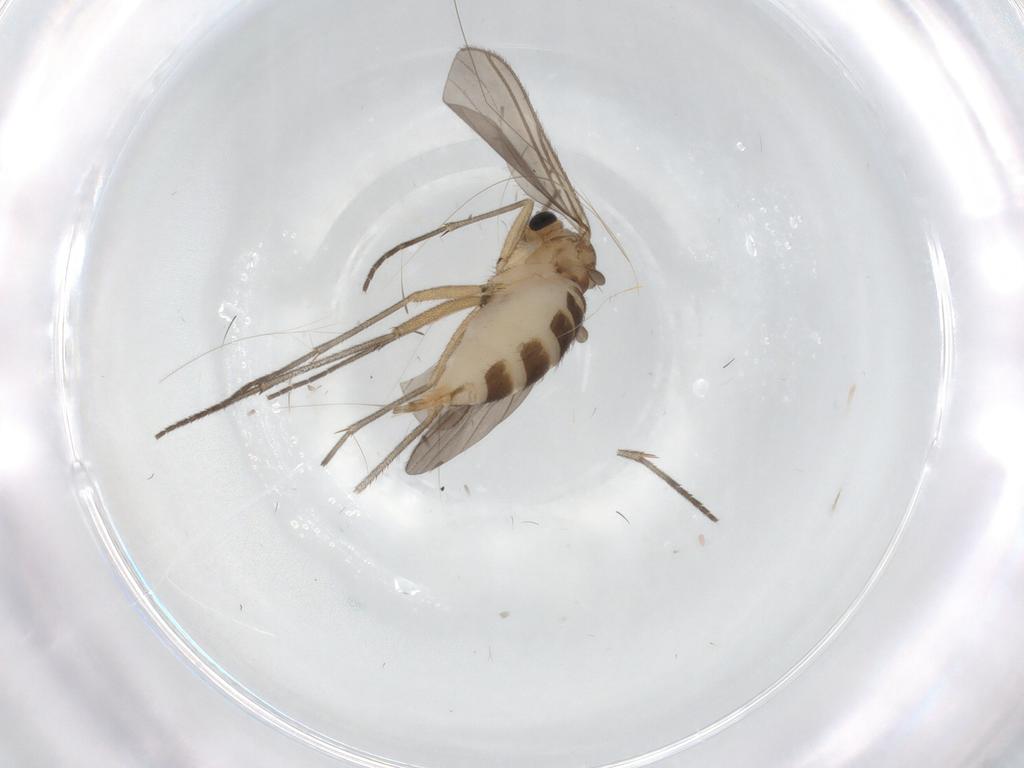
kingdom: Animalia
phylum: Arthropoda
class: Insecta
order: Diptera
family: Sciaridae
